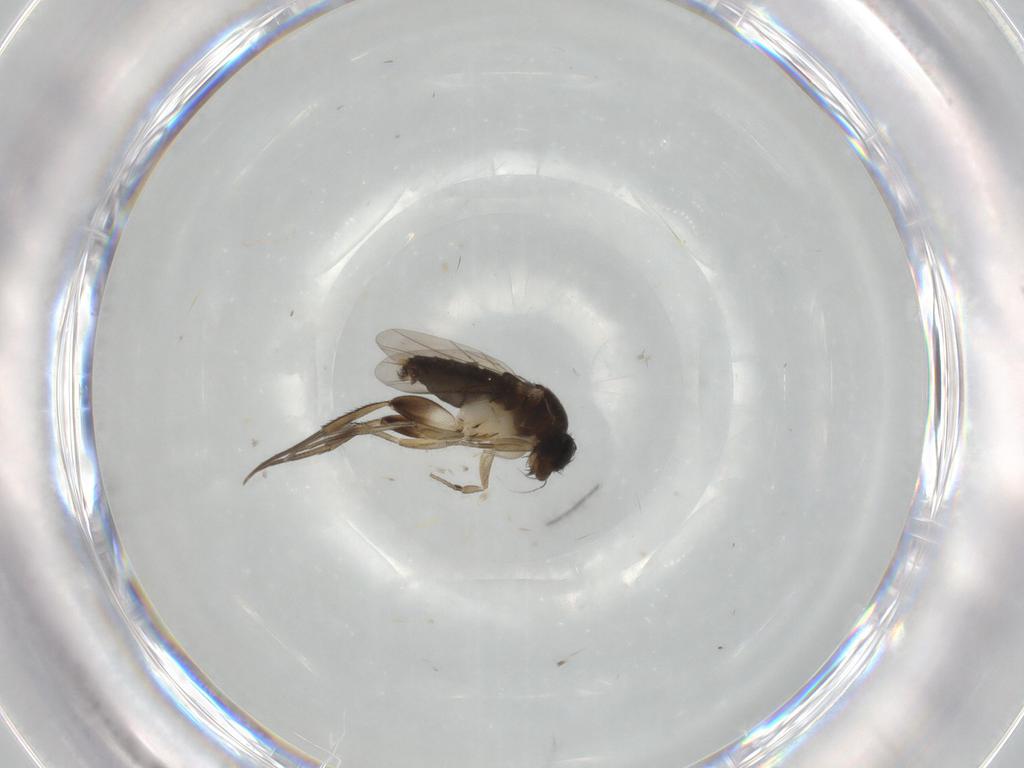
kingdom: Animalia
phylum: Arthropoda
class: Insecta
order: Diptera
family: Phoridae
